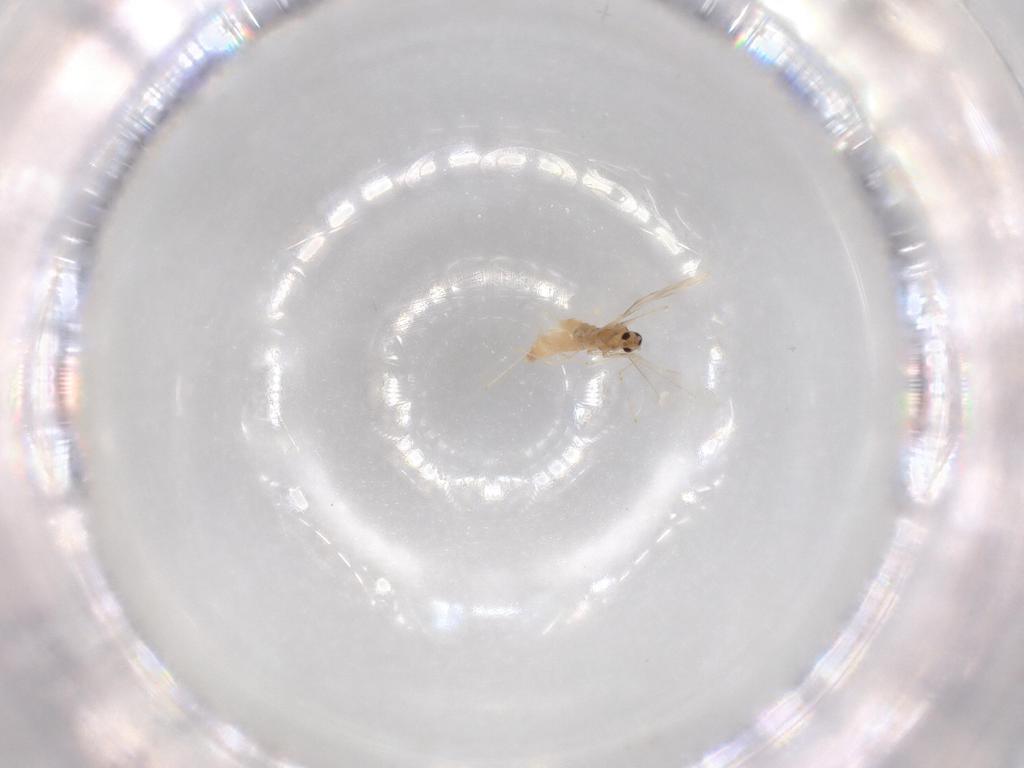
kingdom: Animalia
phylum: Arthropoda
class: Insecta
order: Diptera
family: Cecidomyiidae
